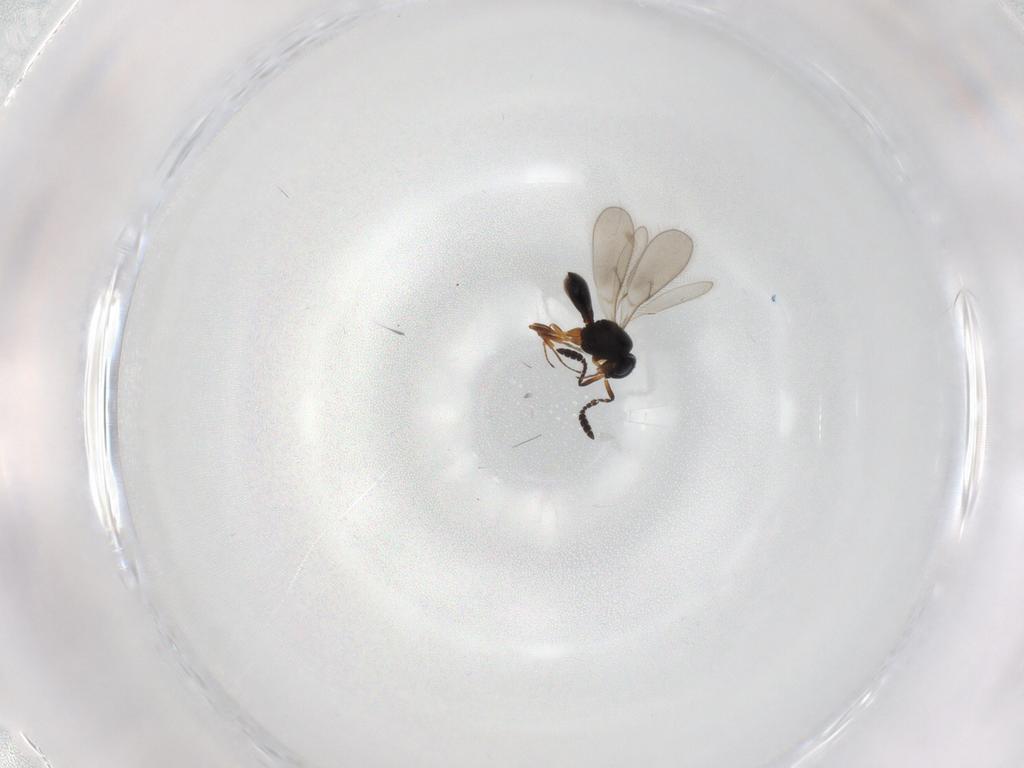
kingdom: Animalia
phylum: Arthropoda
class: Insecta
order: Hymenoptera
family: Scelionidae
